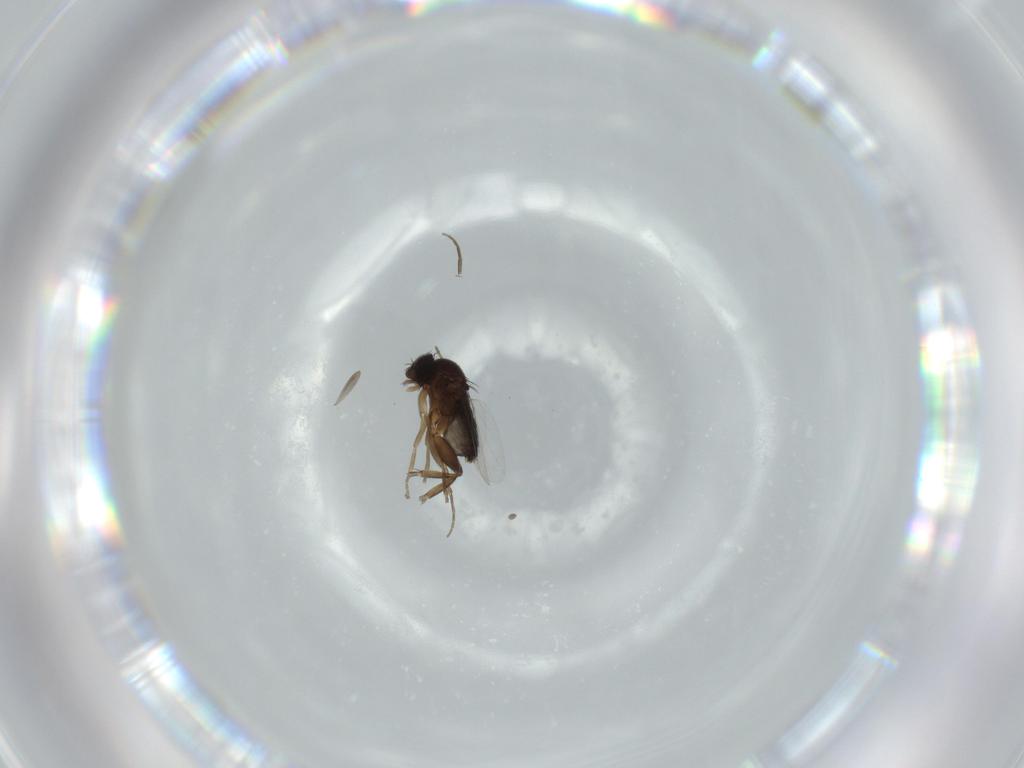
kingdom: Animalia
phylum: Arthropoda
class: Insecta
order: Diptera
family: Phoridae
